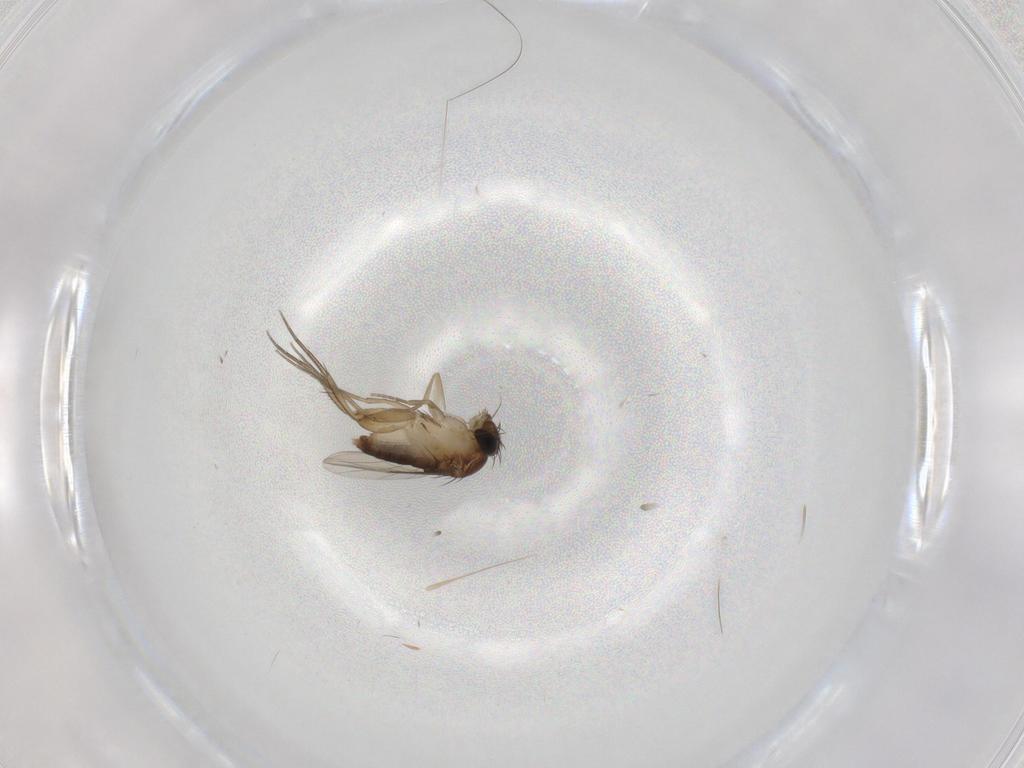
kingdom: Animalia
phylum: Arthropoda
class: Insecta
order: Diptera
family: Phoridae
